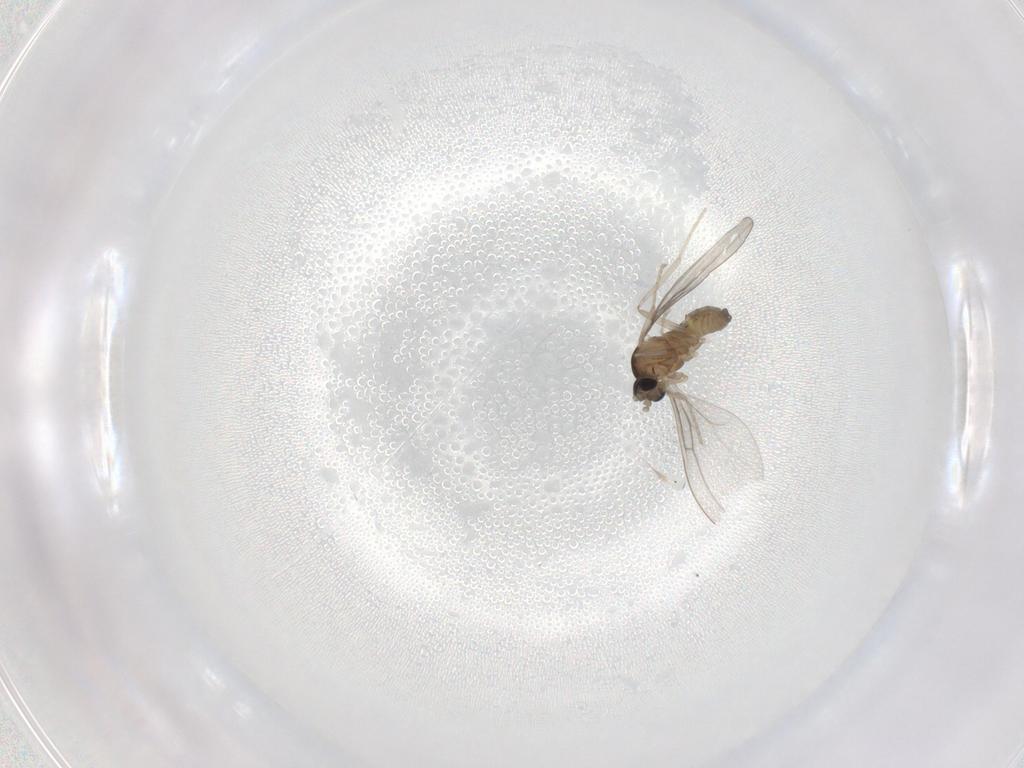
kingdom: Animalia
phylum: Arthropoda
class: Insecta
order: Diptera
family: Cecidomyiidae
